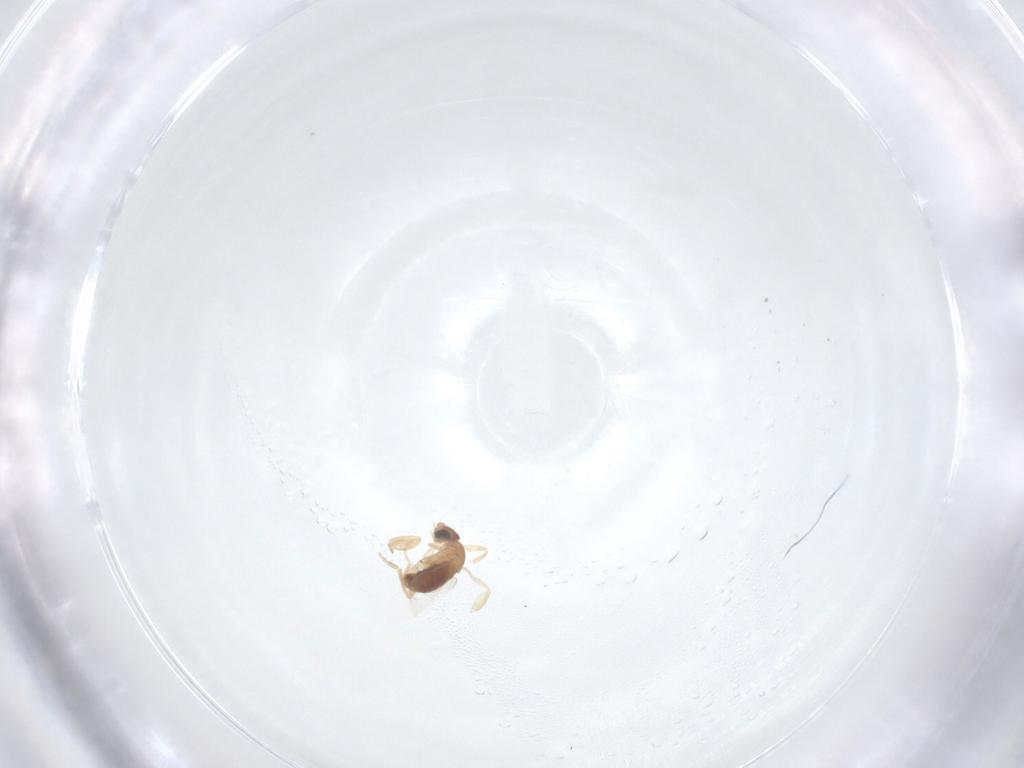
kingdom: Animalia
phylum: Arthropoda
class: Insecta
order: Diptera
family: Phoridae
